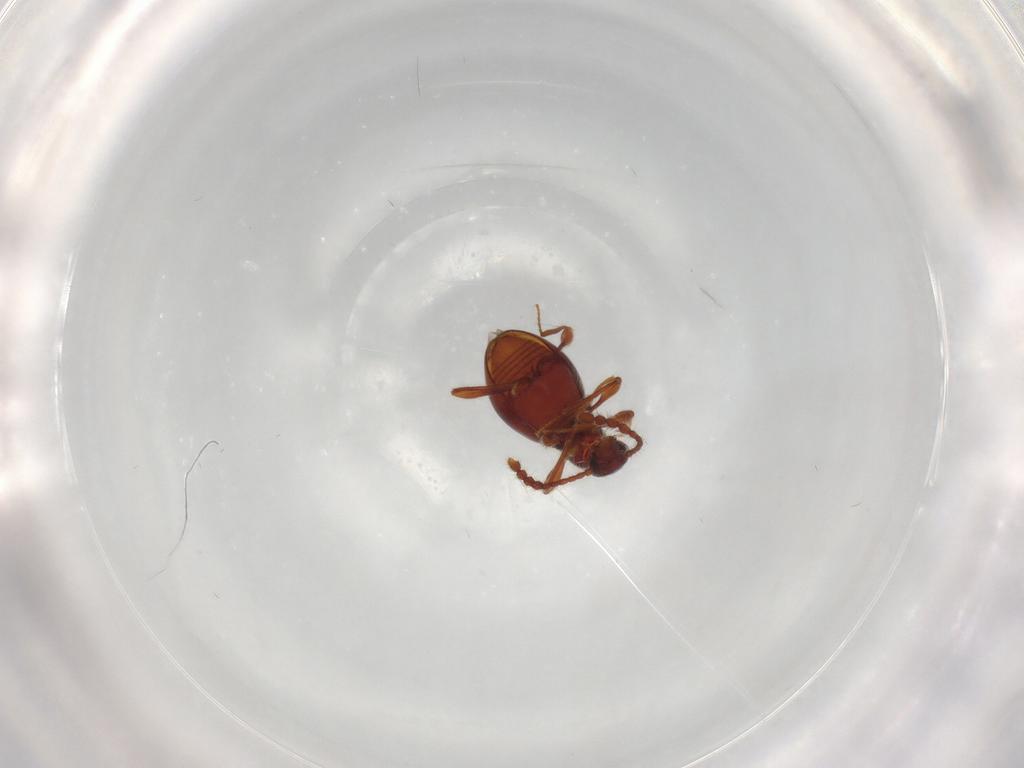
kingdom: Animalia
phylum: Arthropoda
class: Insecta
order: Coleoptera
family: Staphylinidae
